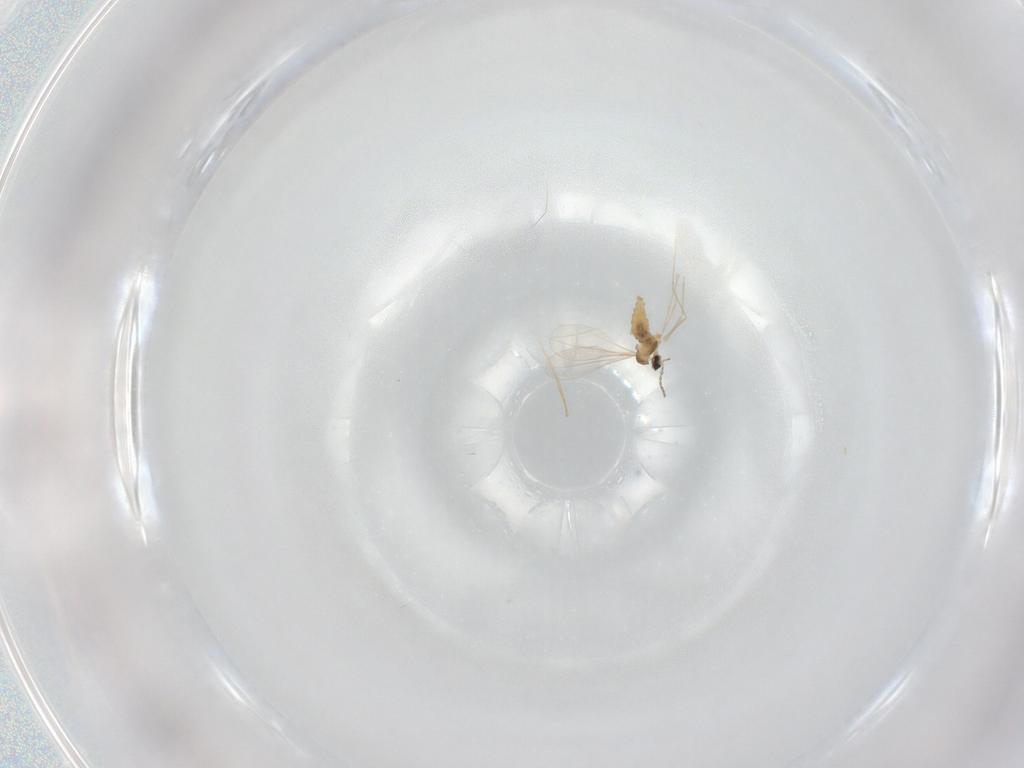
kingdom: Animalia
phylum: Arthropoda
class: Insecta
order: Diptera
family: Cecidomyiidae
